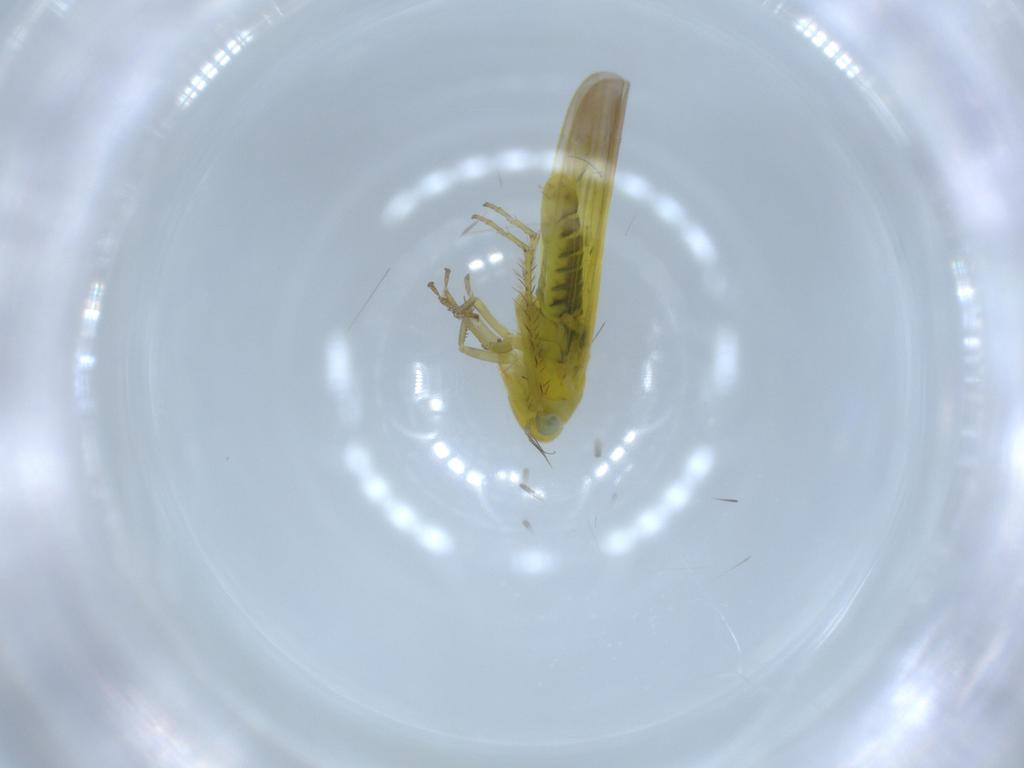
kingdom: Animalia
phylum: Arthropoda
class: Insecta
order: Hemiptera
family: Cicadellidae
